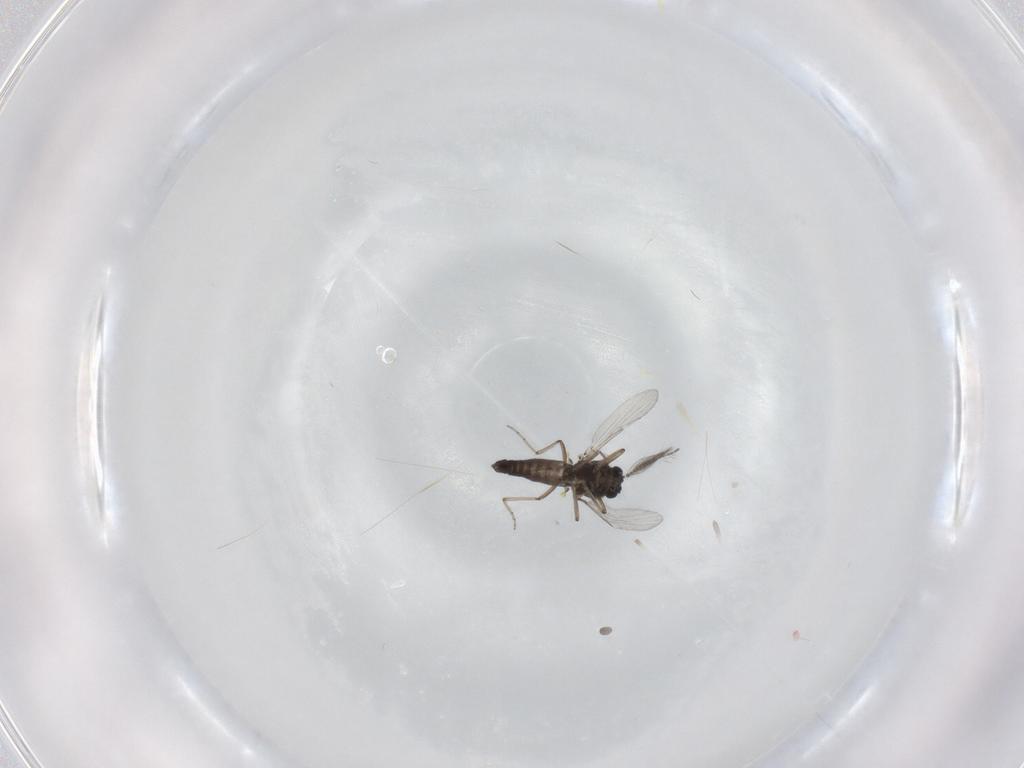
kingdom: Animalia
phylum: Arthropoda
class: Insecta
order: Diptera
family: Ceratopogonidae
